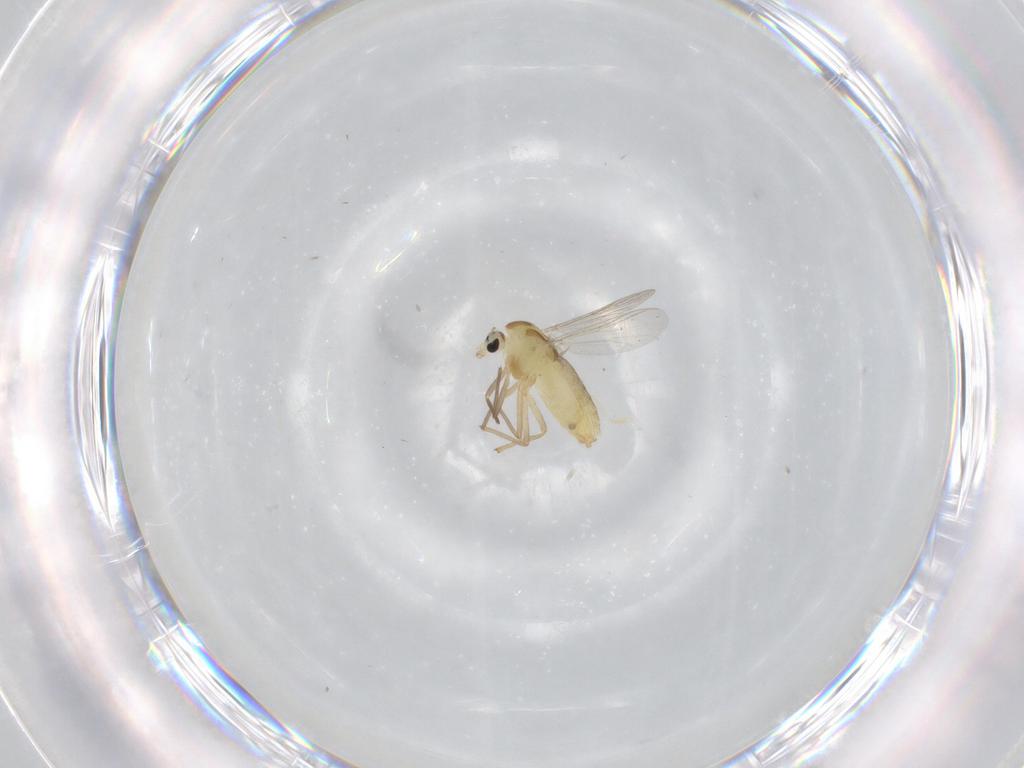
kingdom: Animalia
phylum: Arthropoda
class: Insecta
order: Diptera
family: Chironomidae
